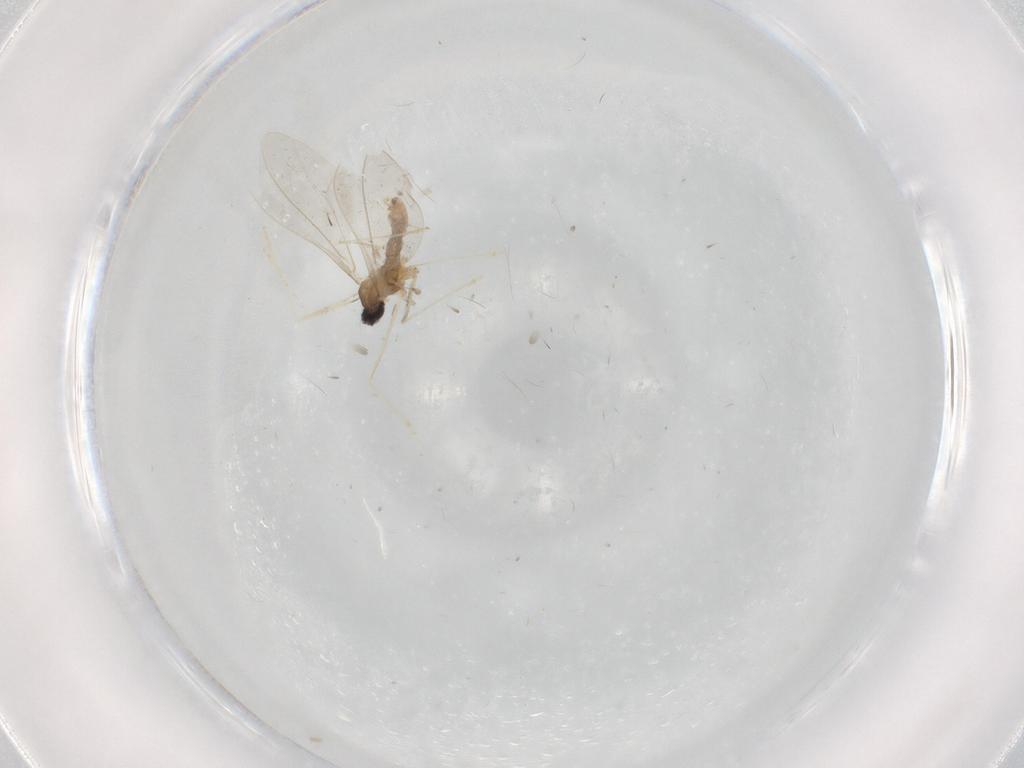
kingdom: Animalia
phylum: Arthropoda
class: Insecta
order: Diptera
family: Cecidomyiidae
